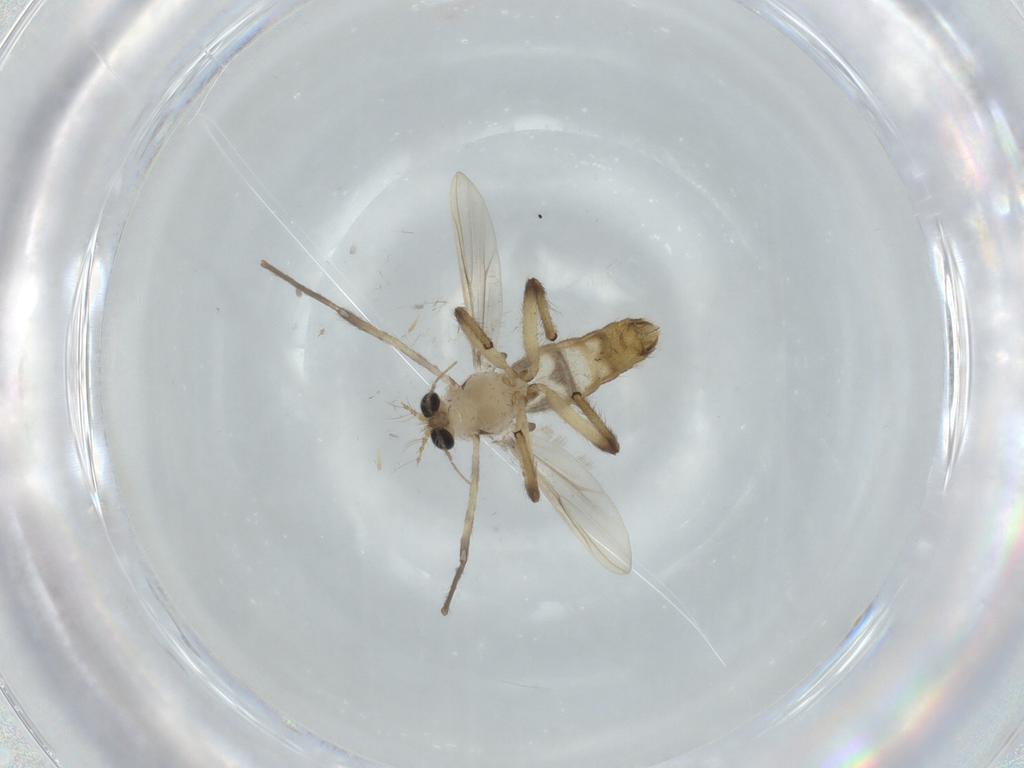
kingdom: Animalia
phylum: Arthropoda
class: Insecta
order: Diptera
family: Chironomidae
